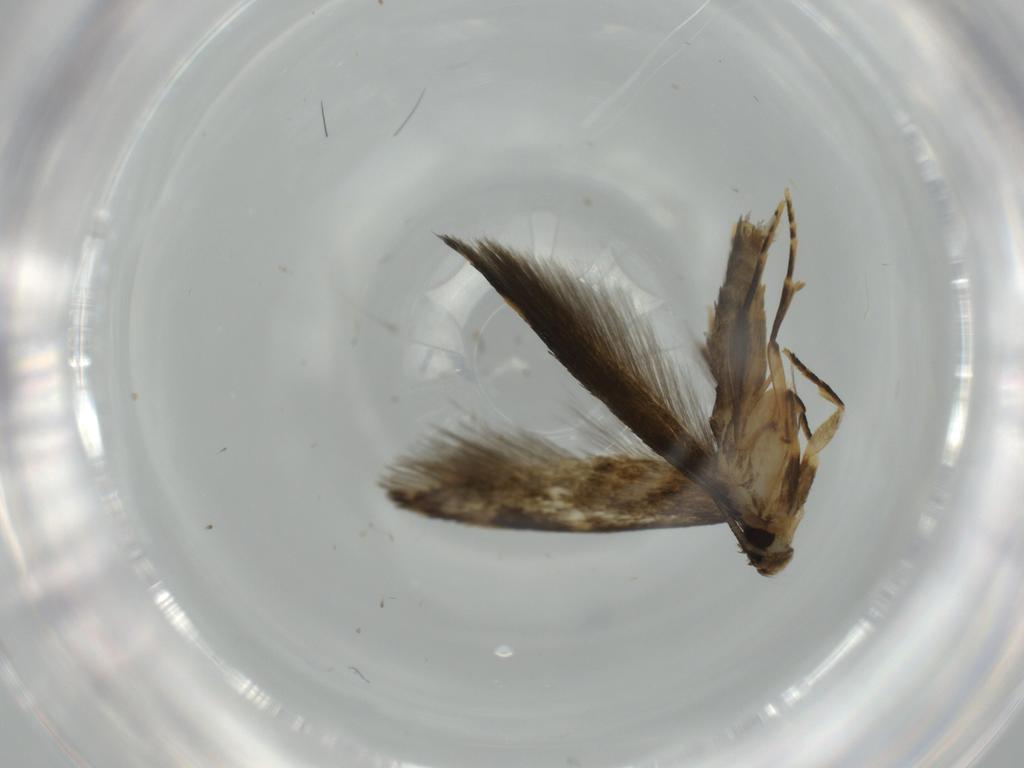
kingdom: Animalia
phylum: Arthropoda
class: Insecta
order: Lepidoptera
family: Tineidae
